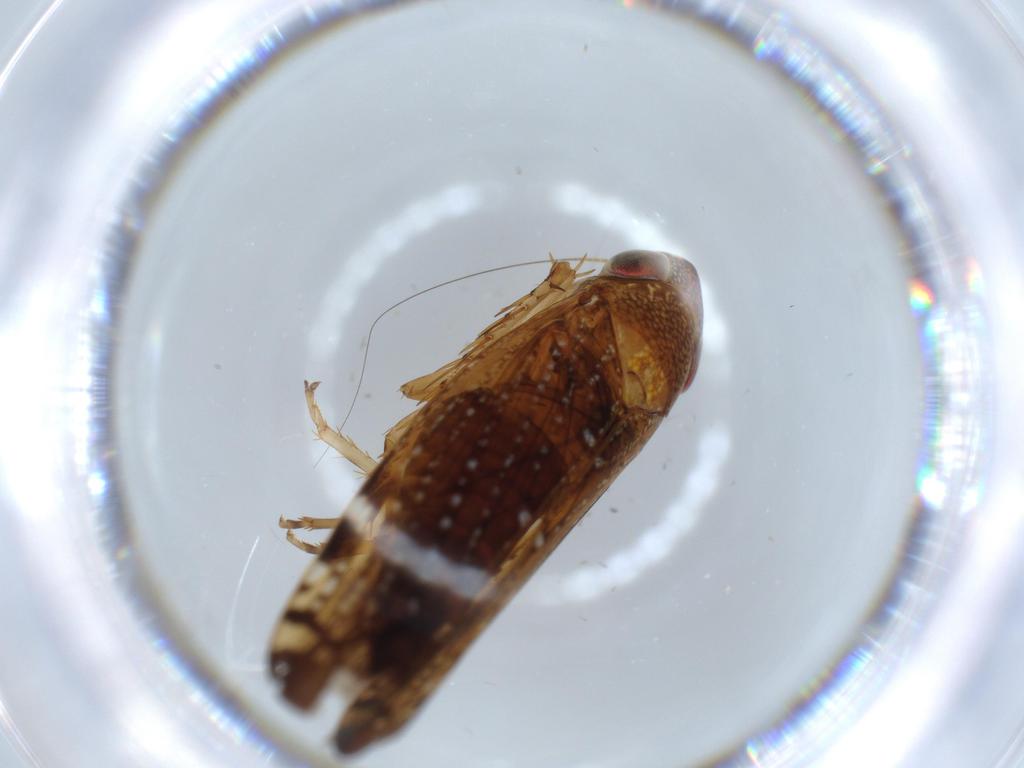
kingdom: Animalia
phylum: Arthropoda
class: Insecta
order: Hemiptera
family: Cicadellidae
